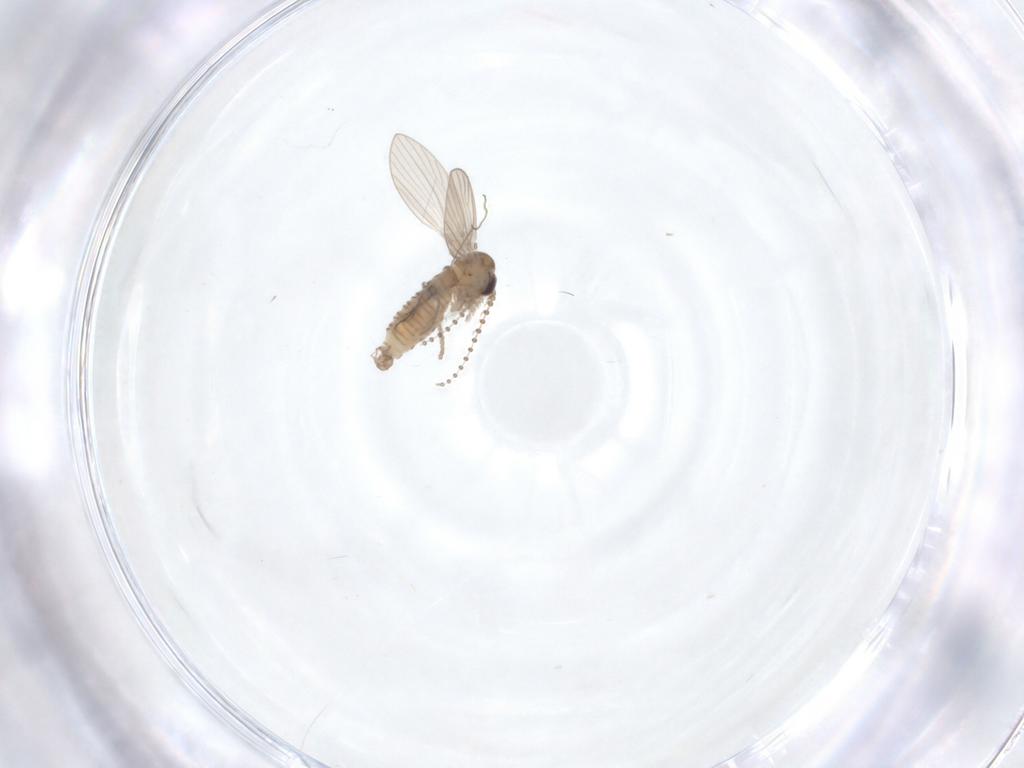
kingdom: Animalia
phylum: Arthropoda
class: Insecta
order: Diptera
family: Psychodidae
